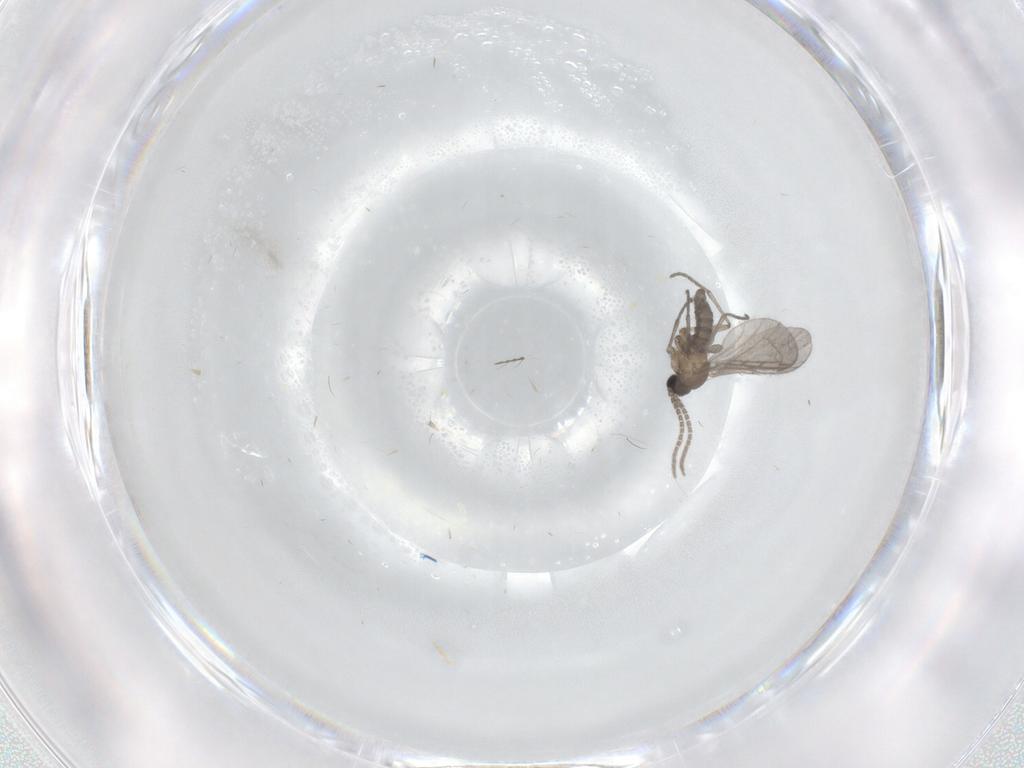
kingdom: Animalia
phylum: Arthropoda
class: Insecta
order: Diptera
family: Sciaridae
